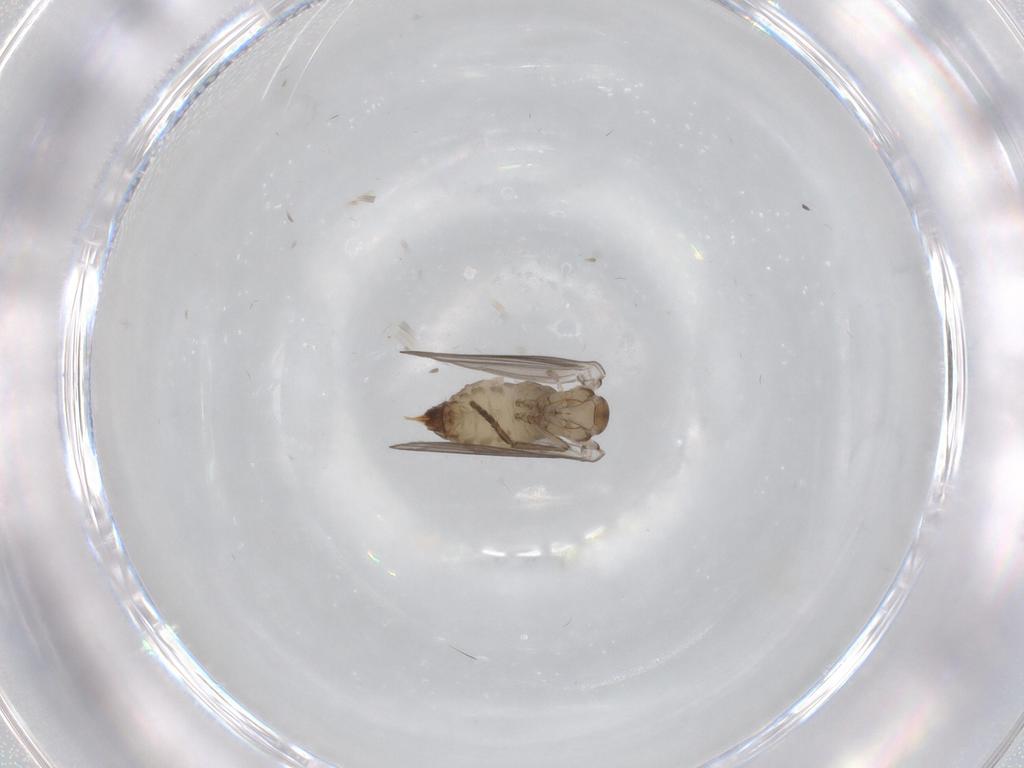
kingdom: Animalia
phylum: Arthropoda
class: Insecta
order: Diptera
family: Psychodidae
